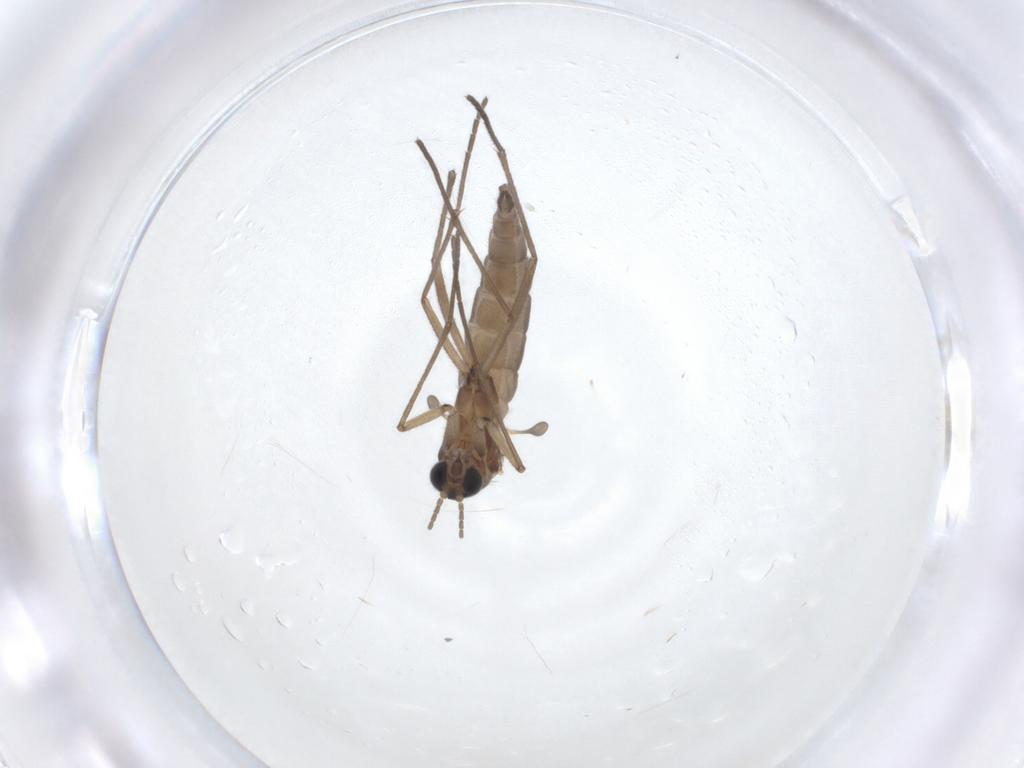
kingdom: Animalia
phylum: Arthropoda
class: Insecta
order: Diptera
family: Sciaridae
